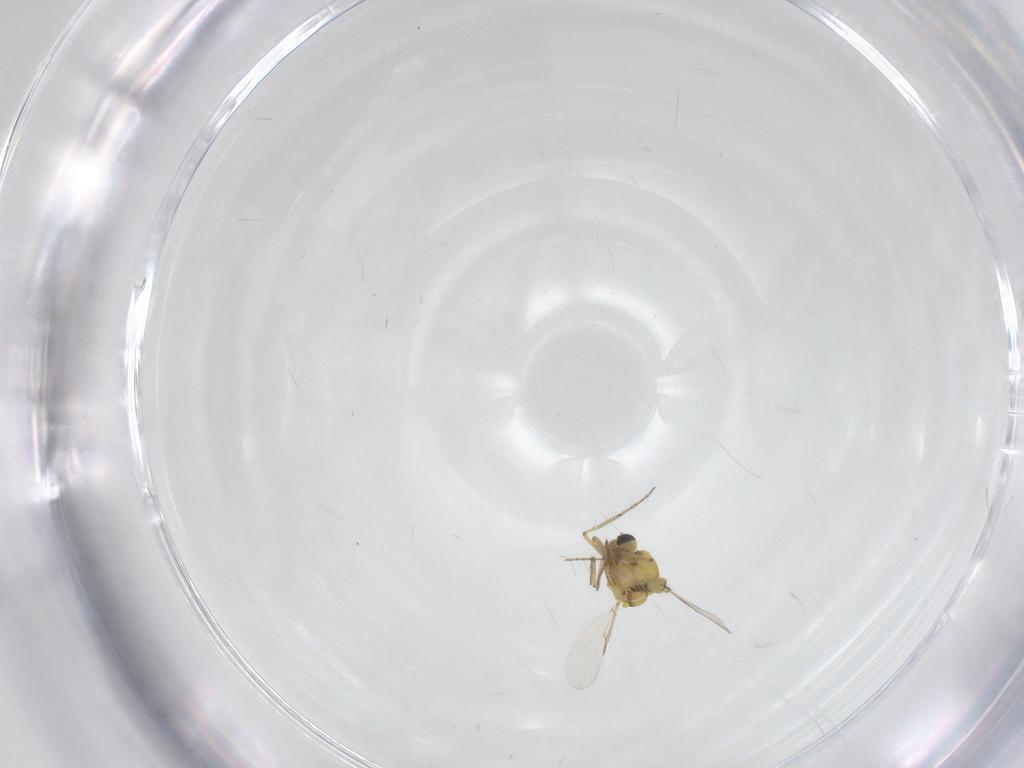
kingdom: Animalia
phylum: Arthropoda
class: Insecta
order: Diptera
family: Ceratopogonidae
